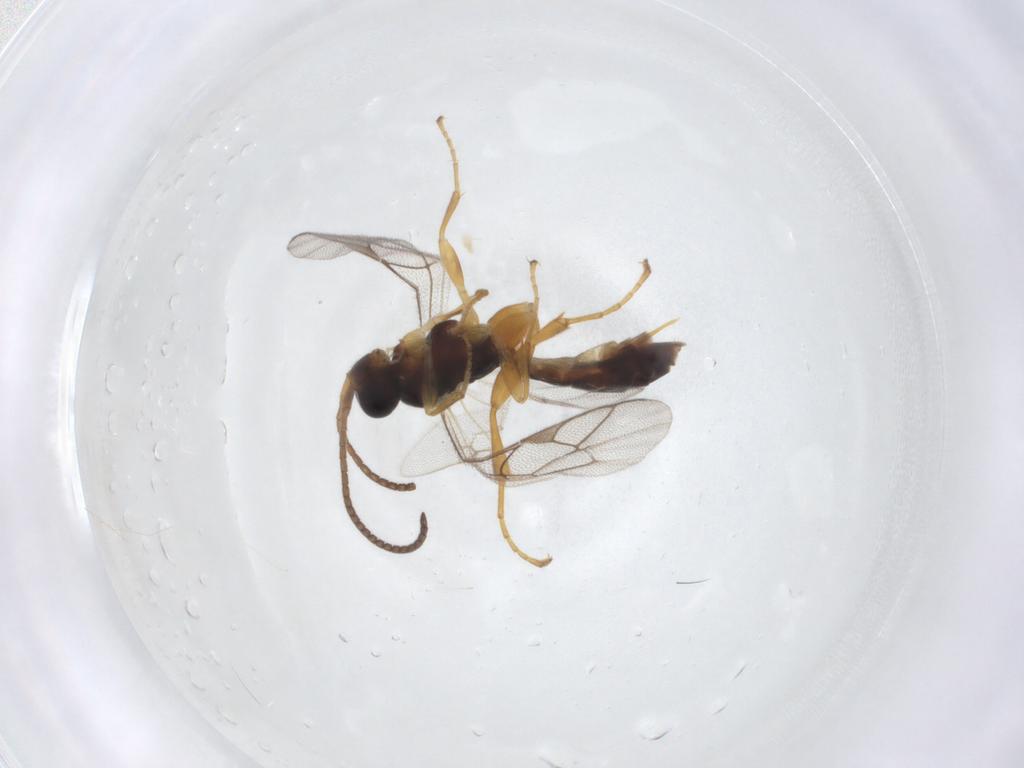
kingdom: Animalia
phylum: Arthropoda
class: Insecta
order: Hymenoptera
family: Ichneumonidae
